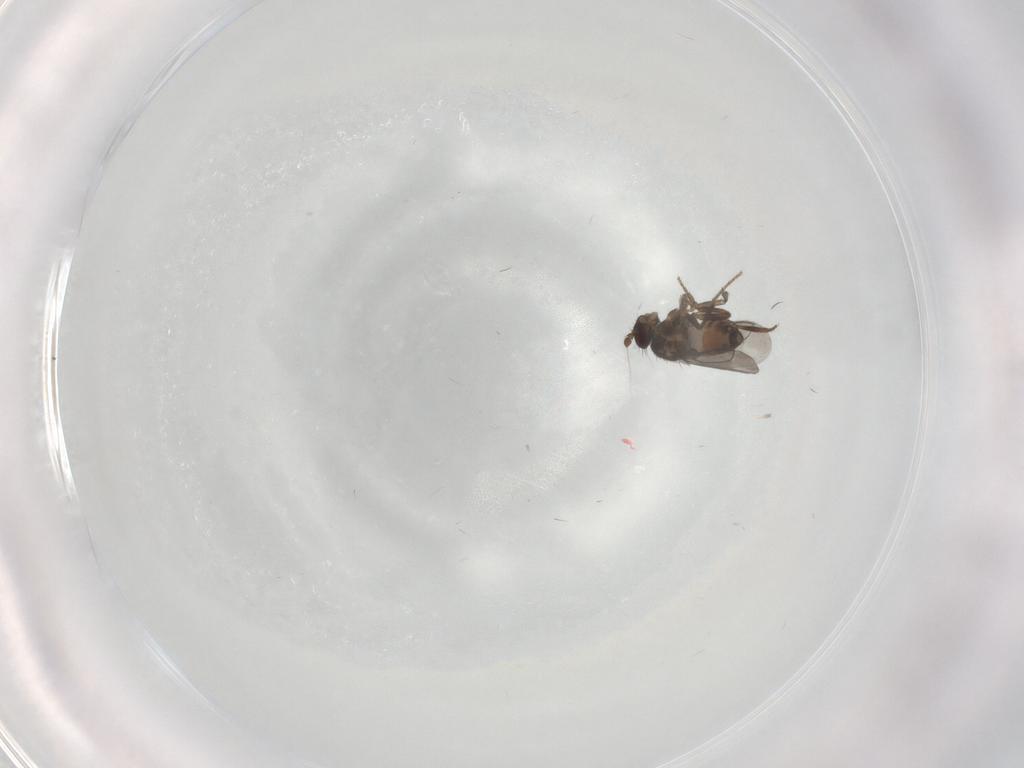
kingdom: Animalia
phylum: Arthropoda
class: Insecta
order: Diptera
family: Sphaeroceridae
